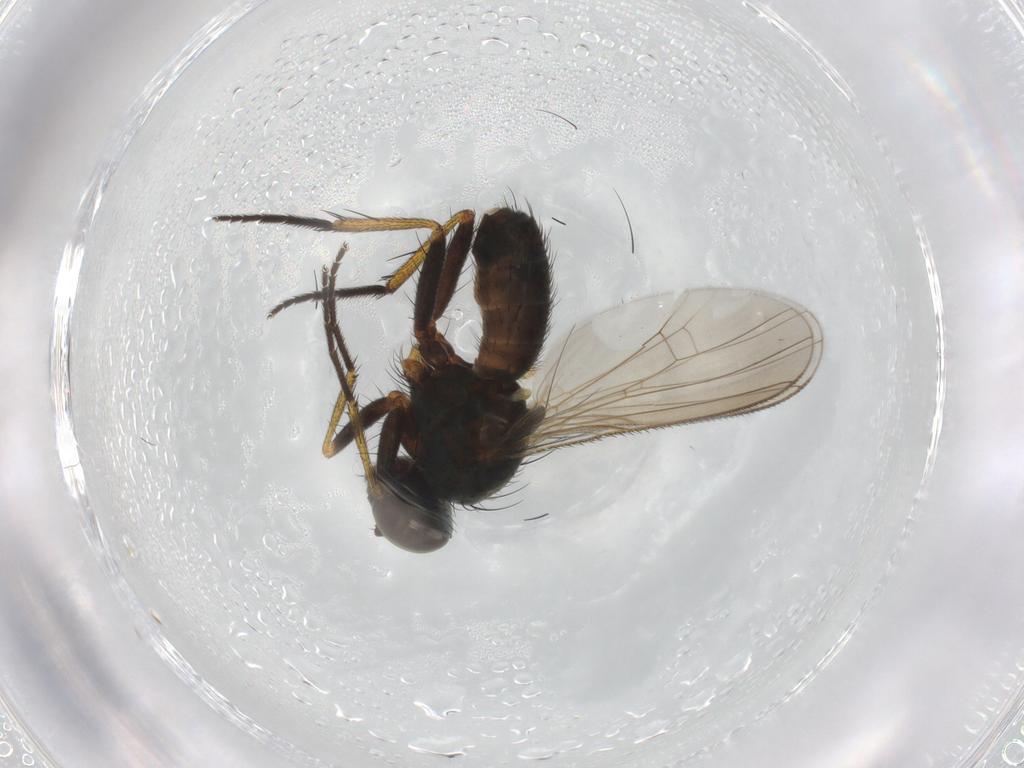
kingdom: Animalia
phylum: Arthropoda
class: Insecta
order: Diptera
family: Muscidae
